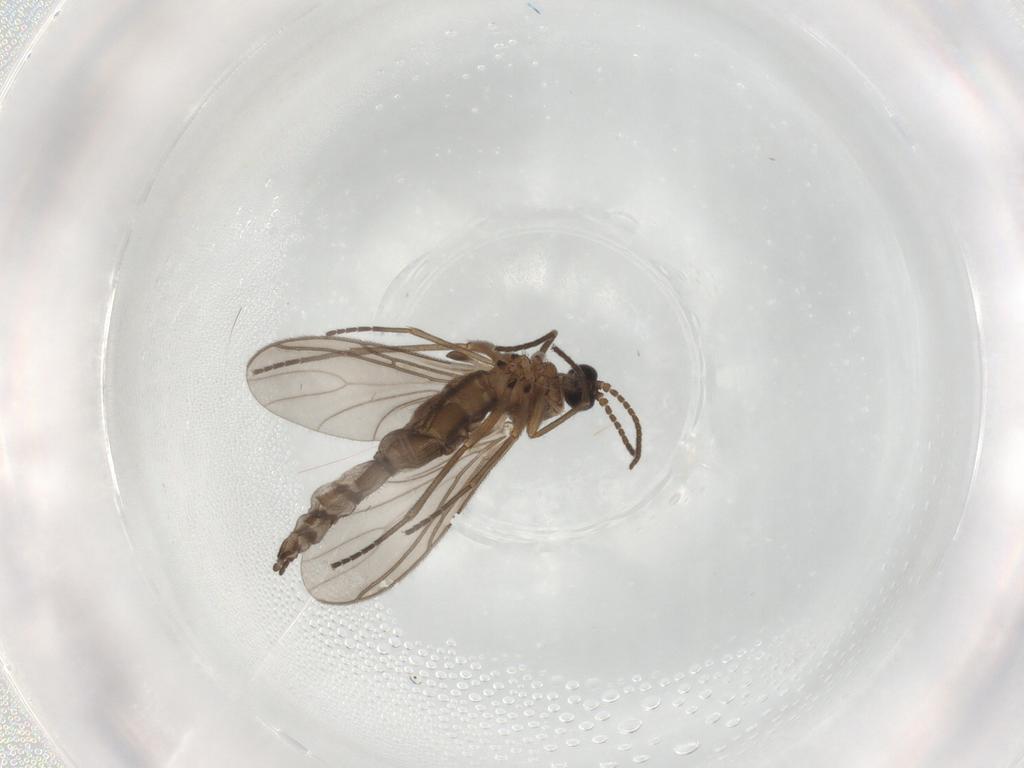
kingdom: Animalia
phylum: Arthropoda
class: Insecta
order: Diptera
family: Sciaridae
